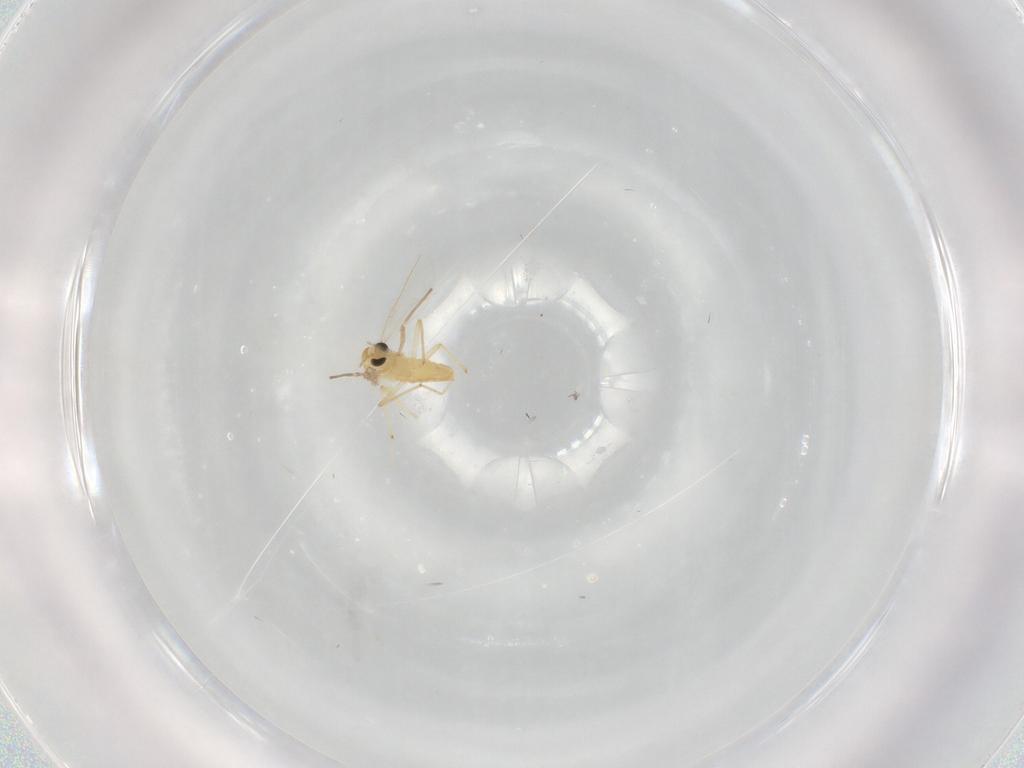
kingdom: Animalia
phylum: Arthropoda
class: Insecta
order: Diptera
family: Chironomidae
